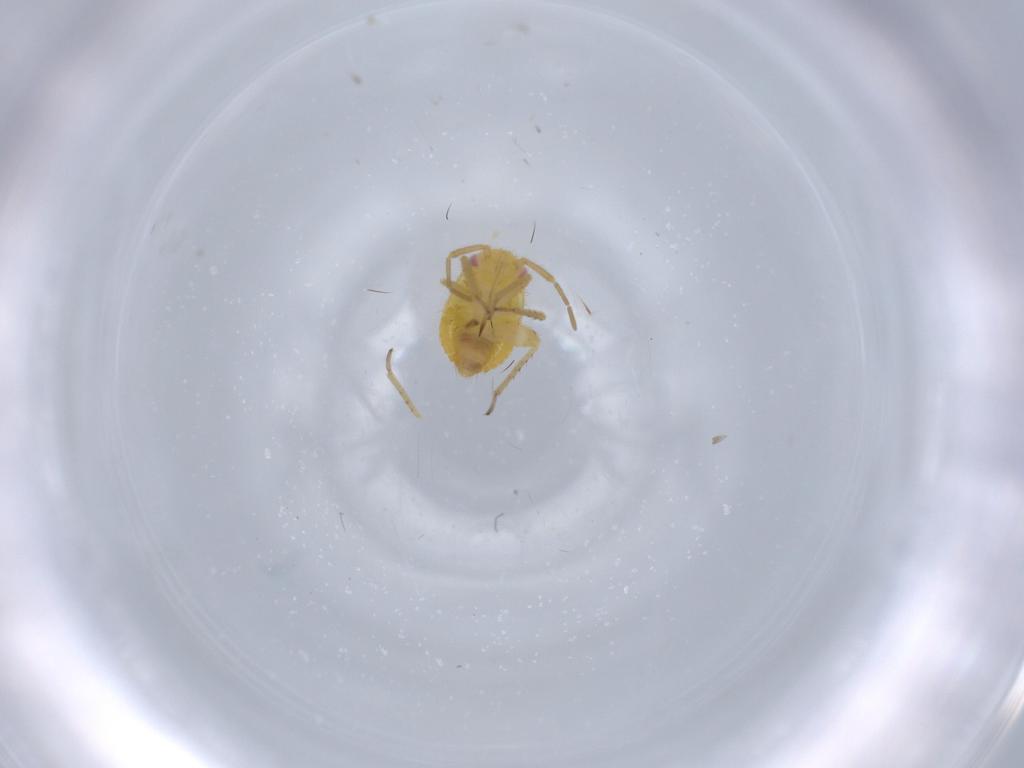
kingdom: Animalia
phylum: Arthropoda
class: Insecta
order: Hemiptera
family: Miridae
